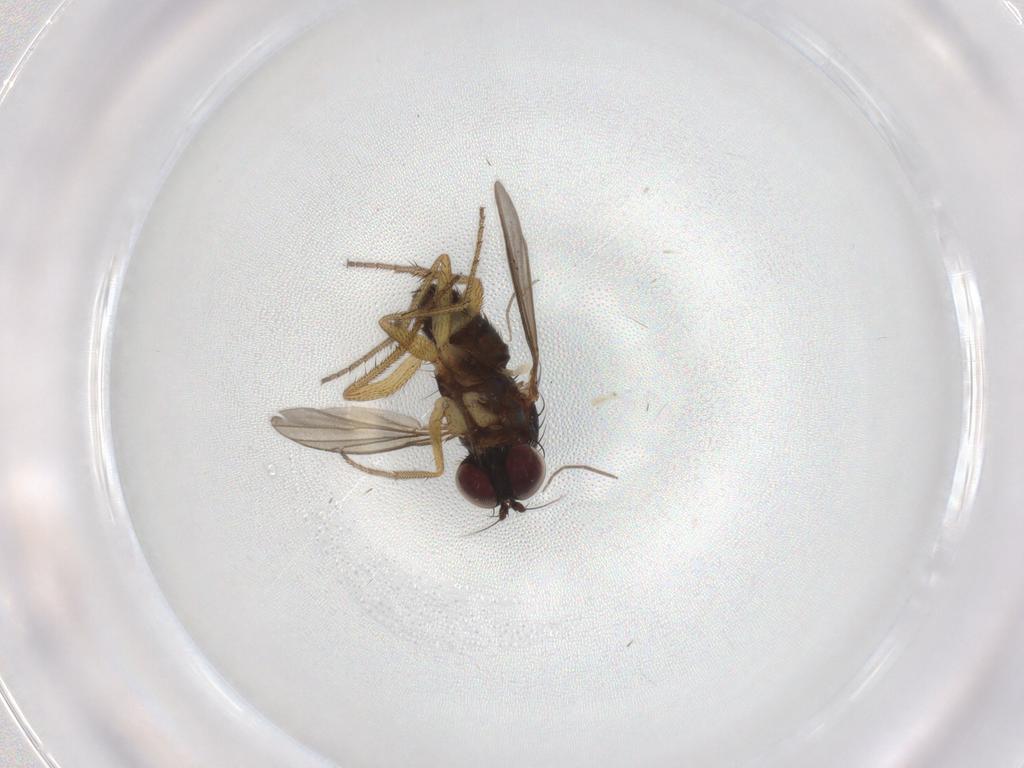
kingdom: Animalia
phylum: Arthropoda
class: Insecta
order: Diptera
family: Dolichopodidae
